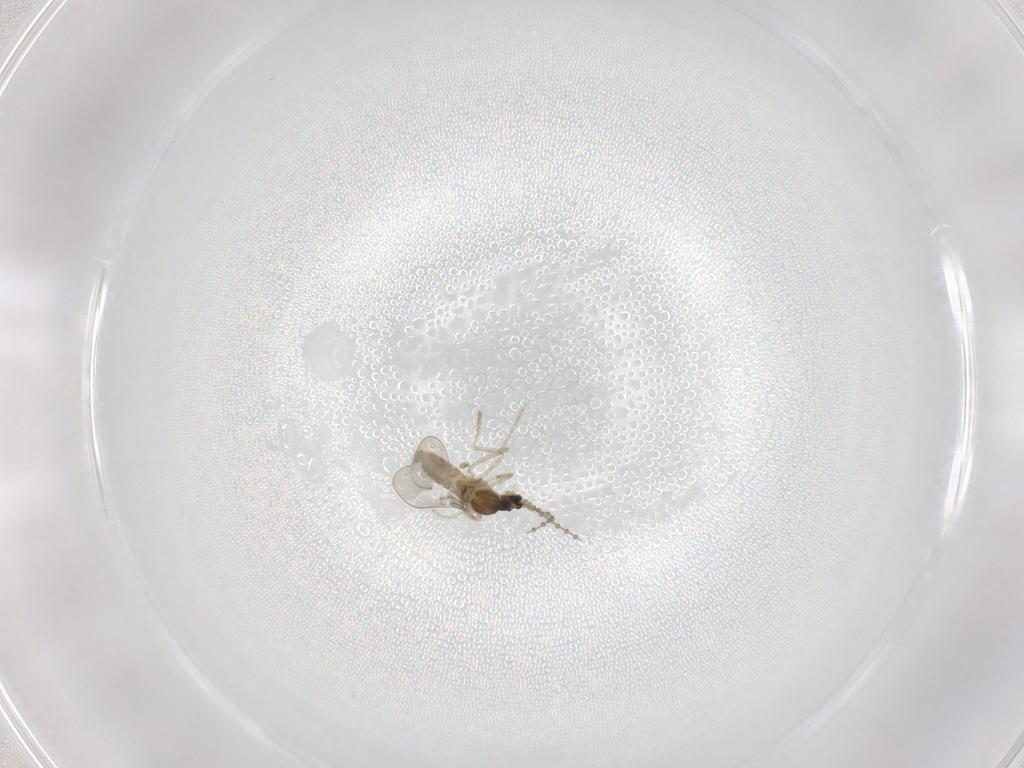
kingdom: Animalia
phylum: Arthropoda
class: Insecta
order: Diptera
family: Cecidomyiidae
